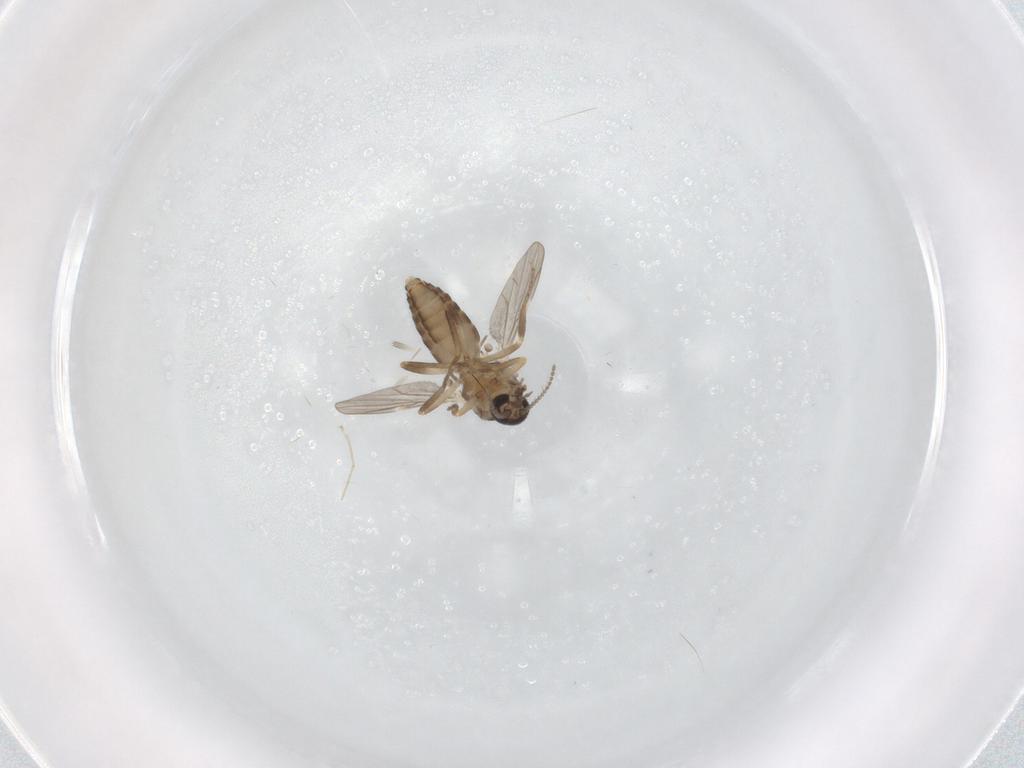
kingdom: Animalia
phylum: Arthropoda
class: Insecta
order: Diptera
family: Ceratopogonidae
